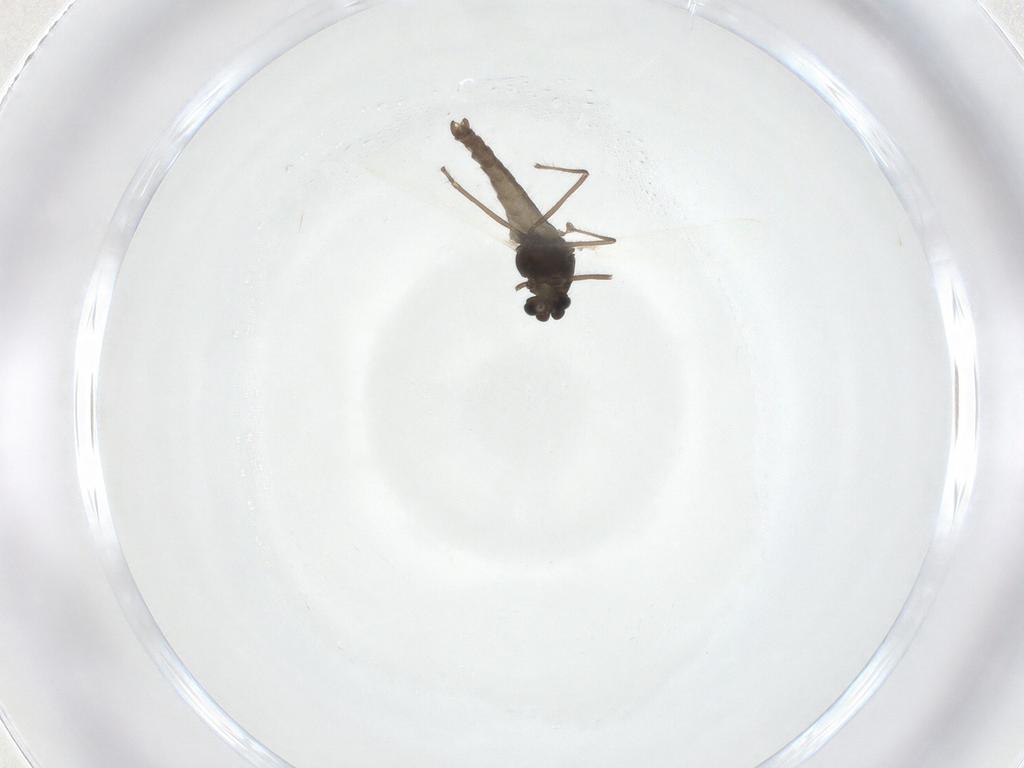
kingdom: Animalia
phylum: Arthropoda
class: Insecta
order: Diptera
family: Chironomidae
